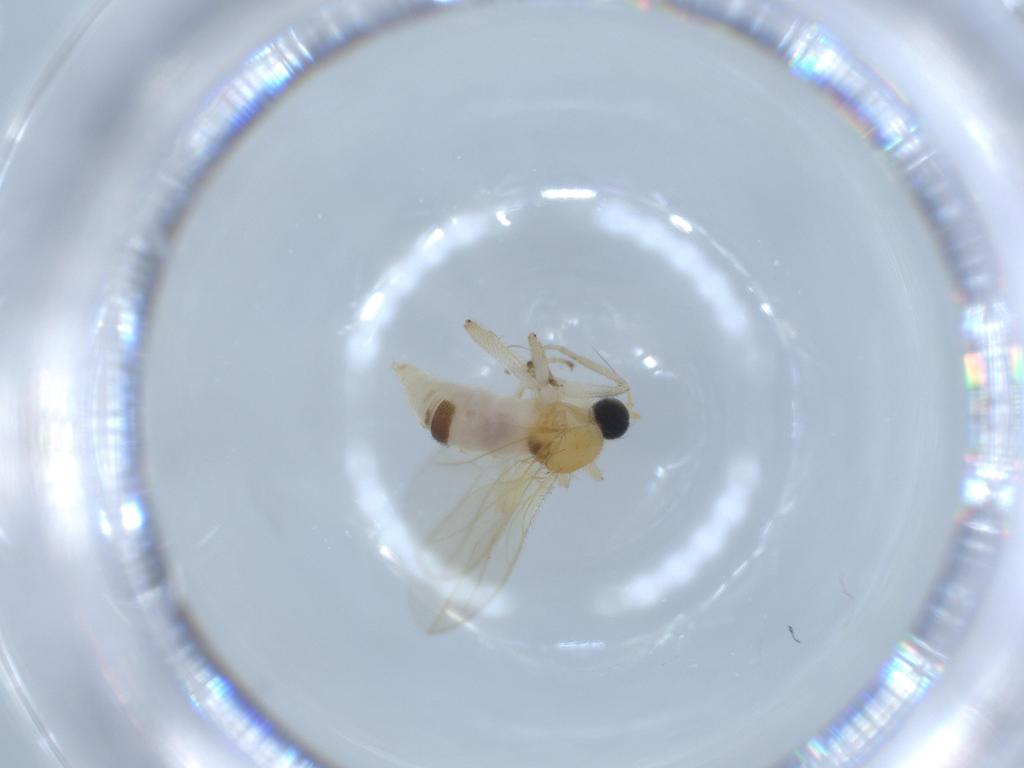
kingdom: Animalia
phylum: Arthropoda
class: Insecta
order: Diptera
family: Hybotidae
